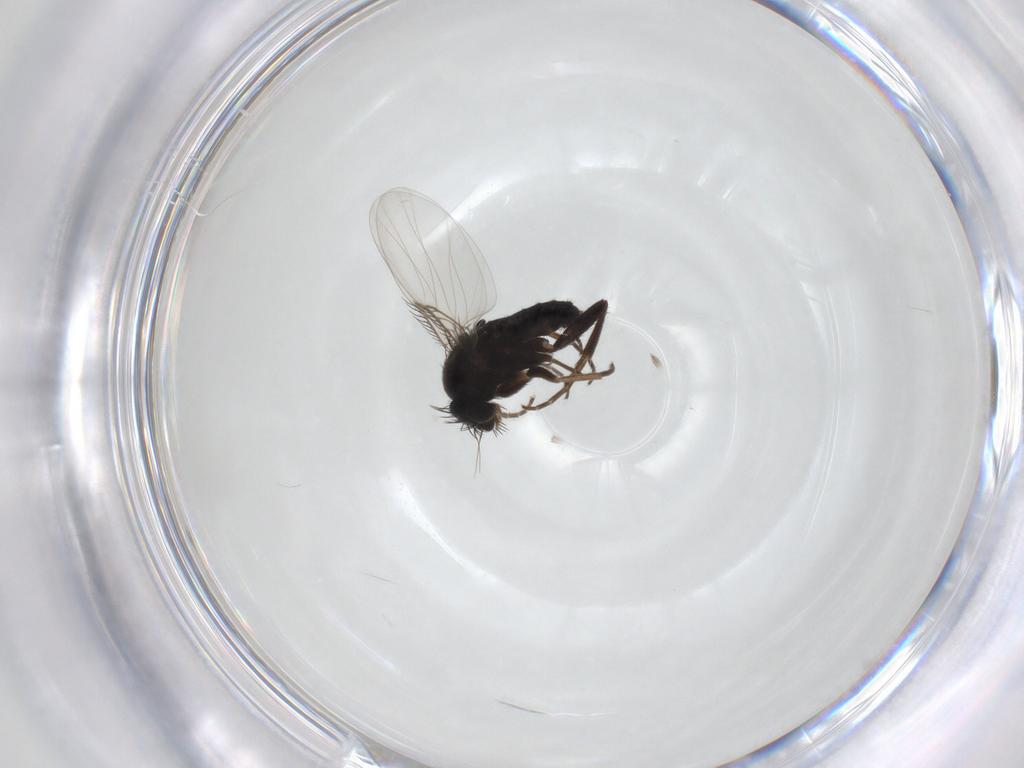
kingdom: Animalia
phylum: Arthropoda
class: Insecta
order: Diptera
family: Phoridae
